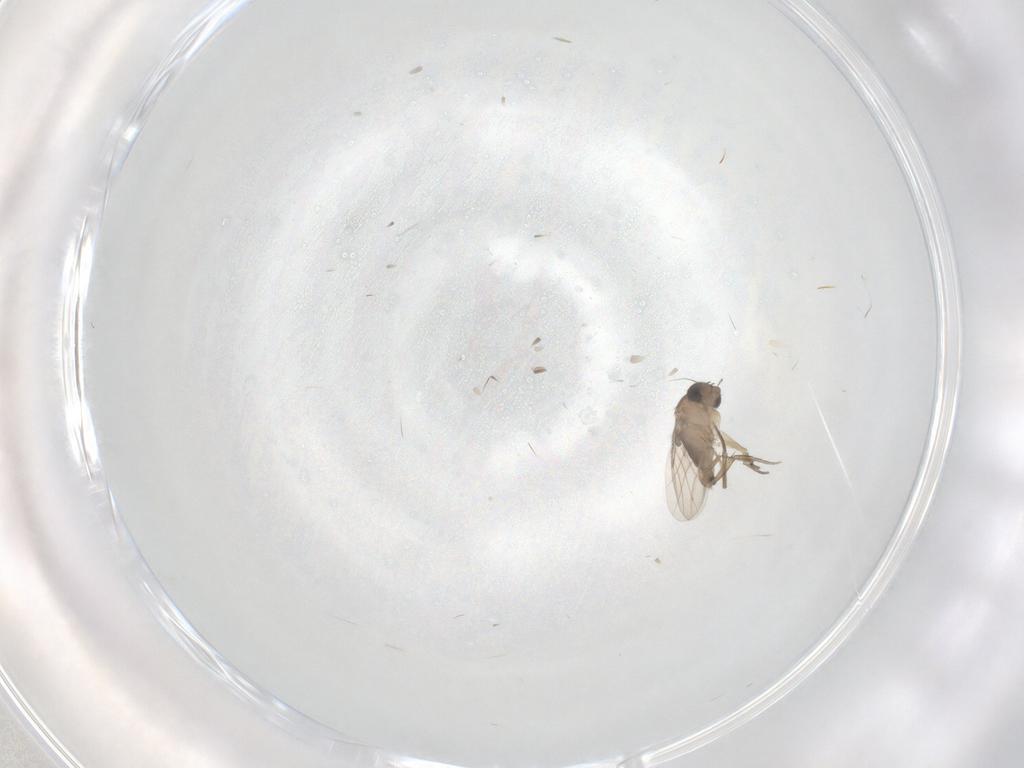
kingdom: Animalia
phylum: Arthropoda
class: Insecta
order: Diptera
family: Phoridae
